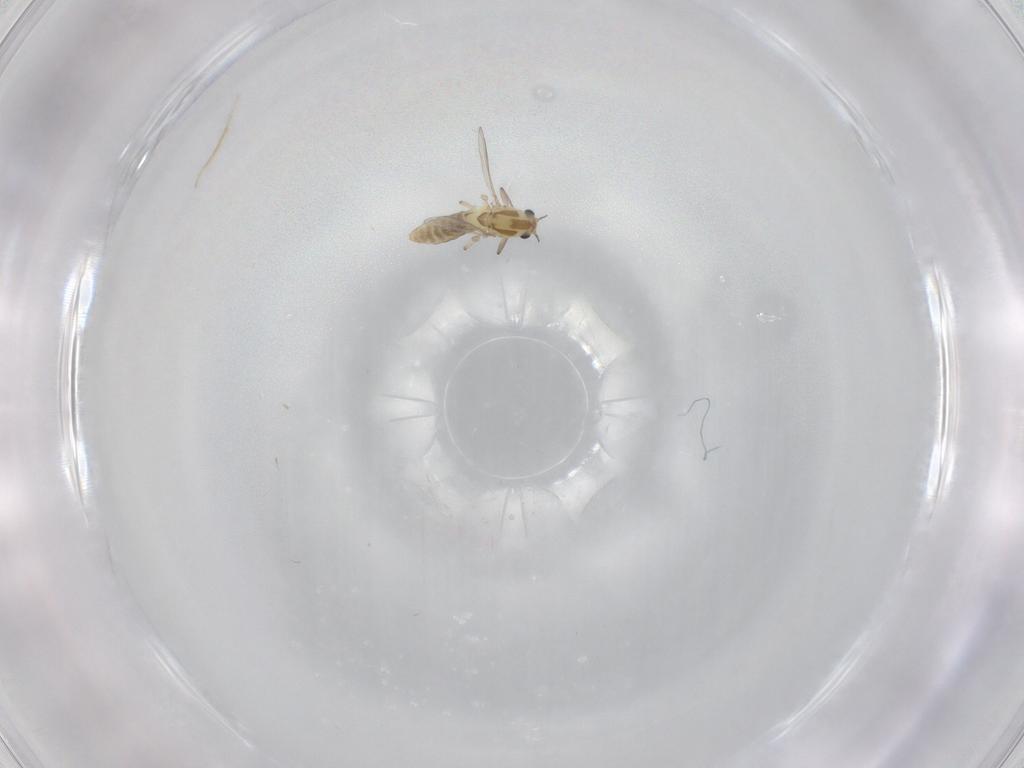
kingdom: Animalia
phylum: Arthropoda
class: Insecta
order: Diptera
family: Chironomidae
